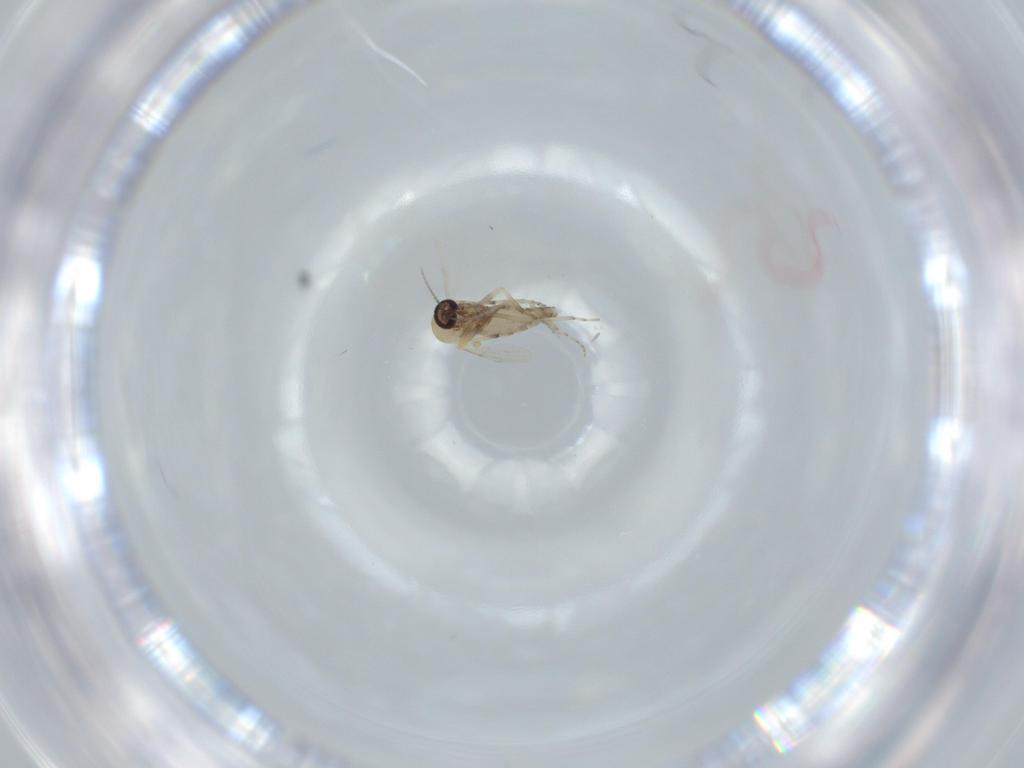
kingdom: Animalia
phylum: Arthropoda
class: Insecta
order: Diptera
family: Ceratopogonidae
